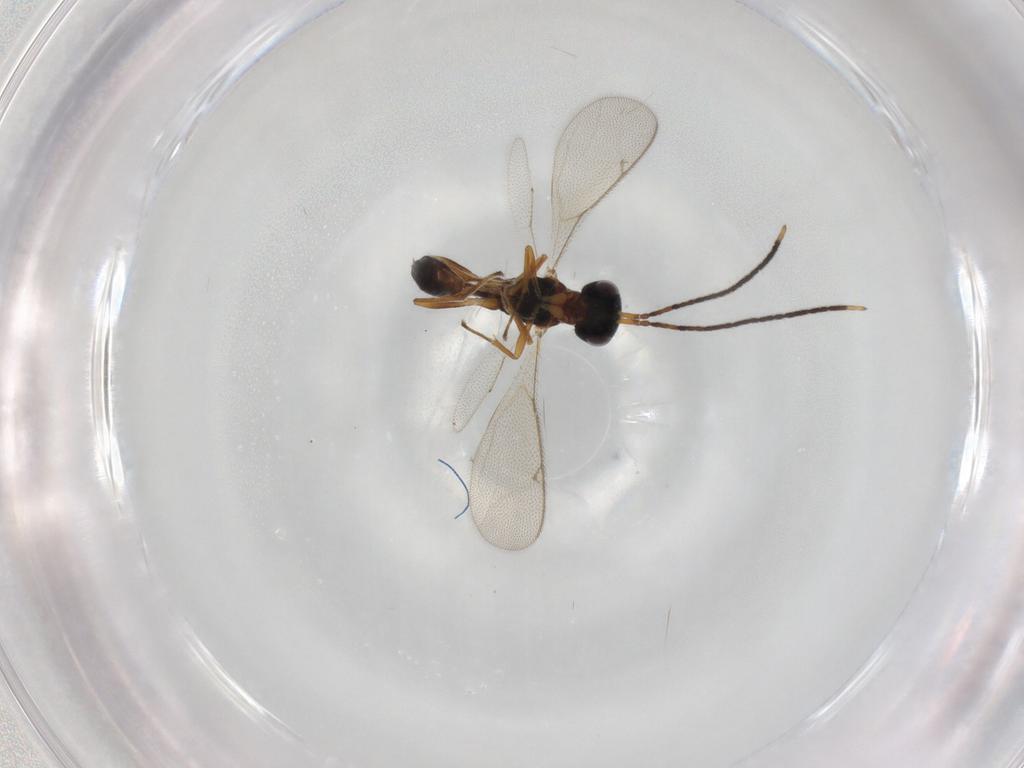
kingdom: Animalia
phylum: Arthropoda
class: Insecta
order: Hymenoptera
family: Pteromalidae
